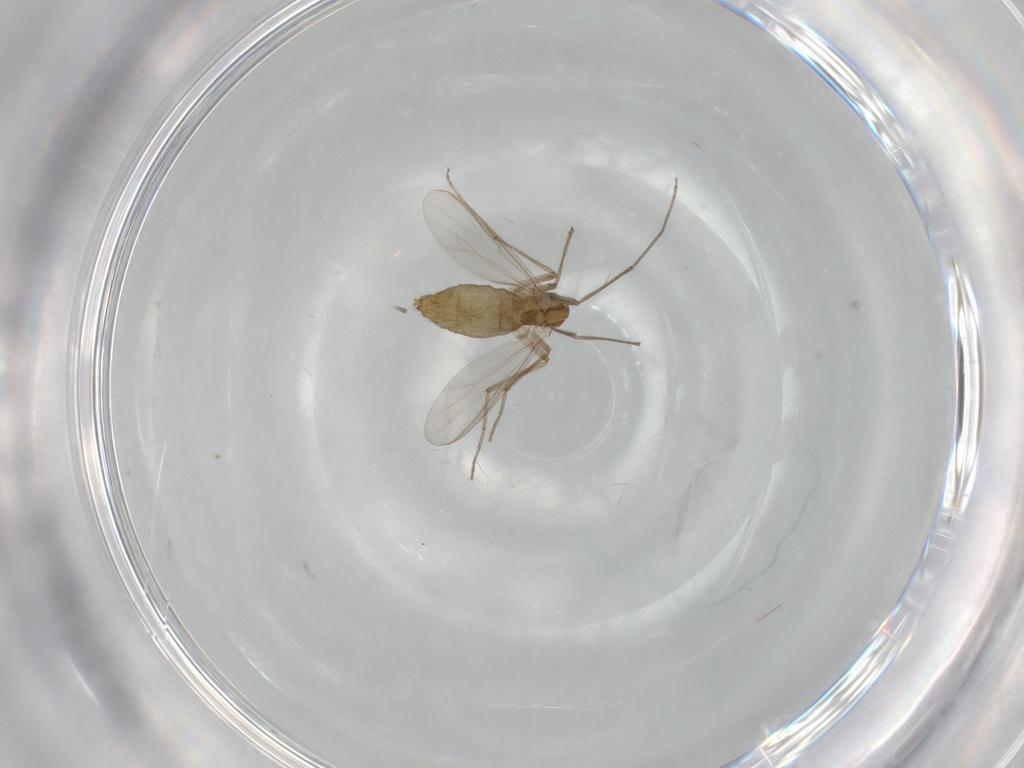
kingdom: Animalia
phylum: Arthropoda
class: Insecta
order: Diptera
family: Chironomidae
